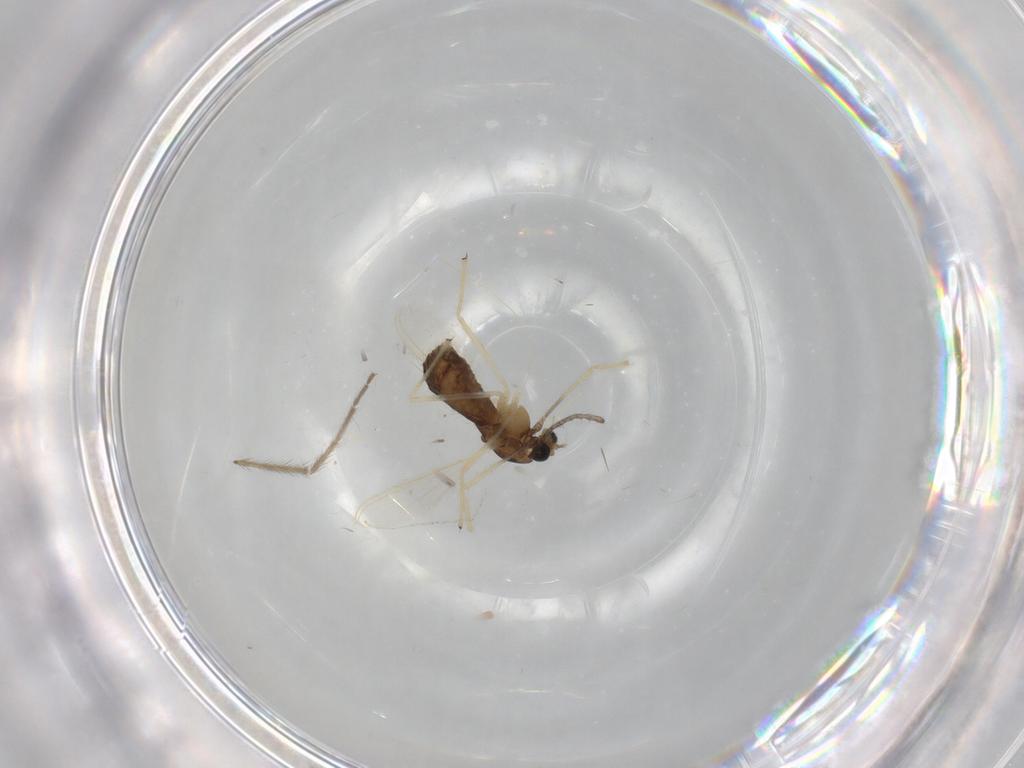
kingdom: Animalia
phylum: Arthropoda
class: Insecta
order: Diptera
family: Chironomidae
